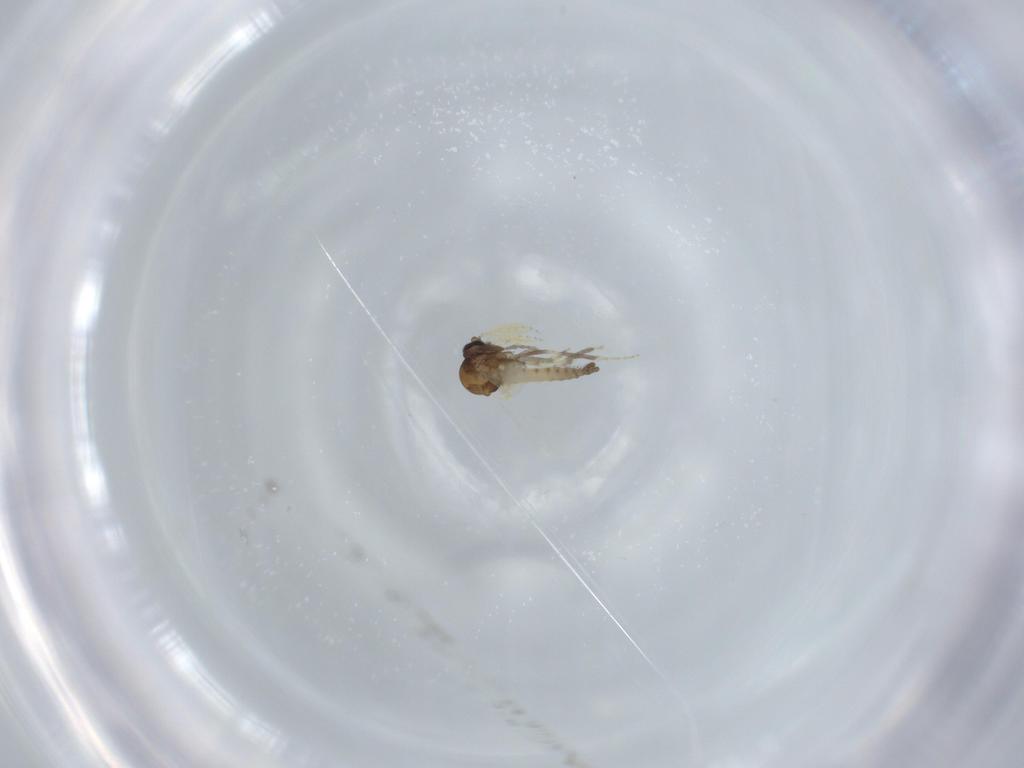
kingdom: Animalia
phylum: Arthropoda
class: Insecta
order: Diptera
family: Ceratopogonidae
